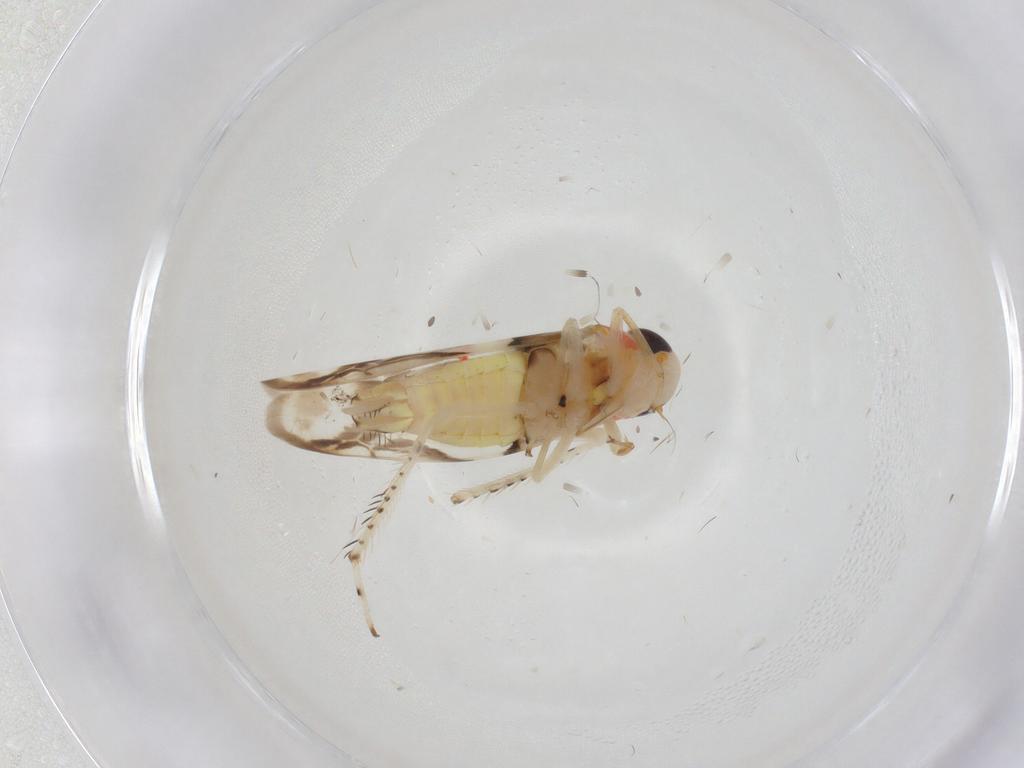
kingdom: Animalia
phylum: Arthropoda
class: Insecta
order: Hemiptera
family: Cicadellidae
